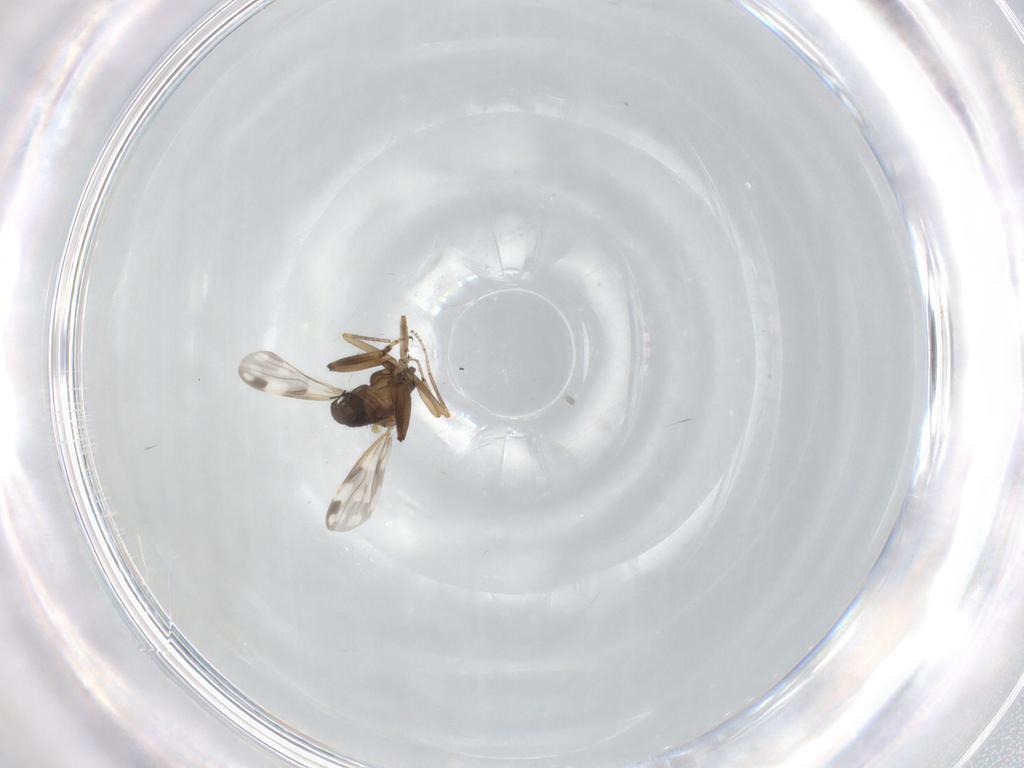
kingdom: Animalia
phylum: Arthropoda
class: Insecta
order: Diptera
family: Ceratopogonidae
